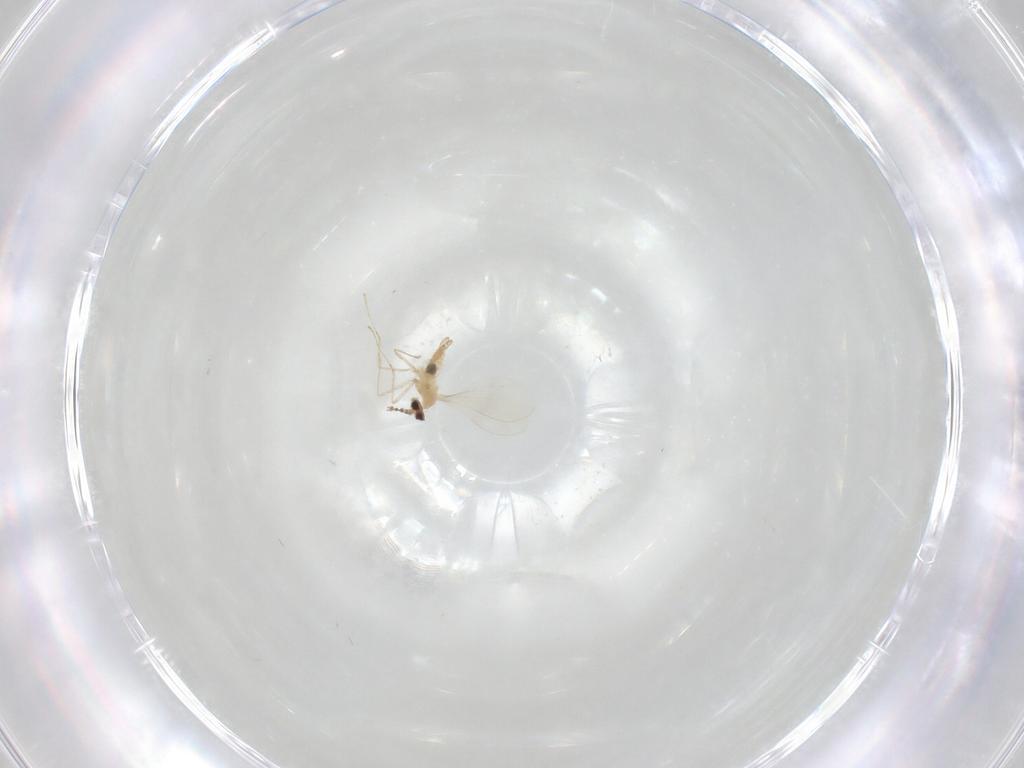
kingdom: Animalia
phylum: Arthropoda
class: Insecta
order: Diptera
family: Cecidomyiidae
